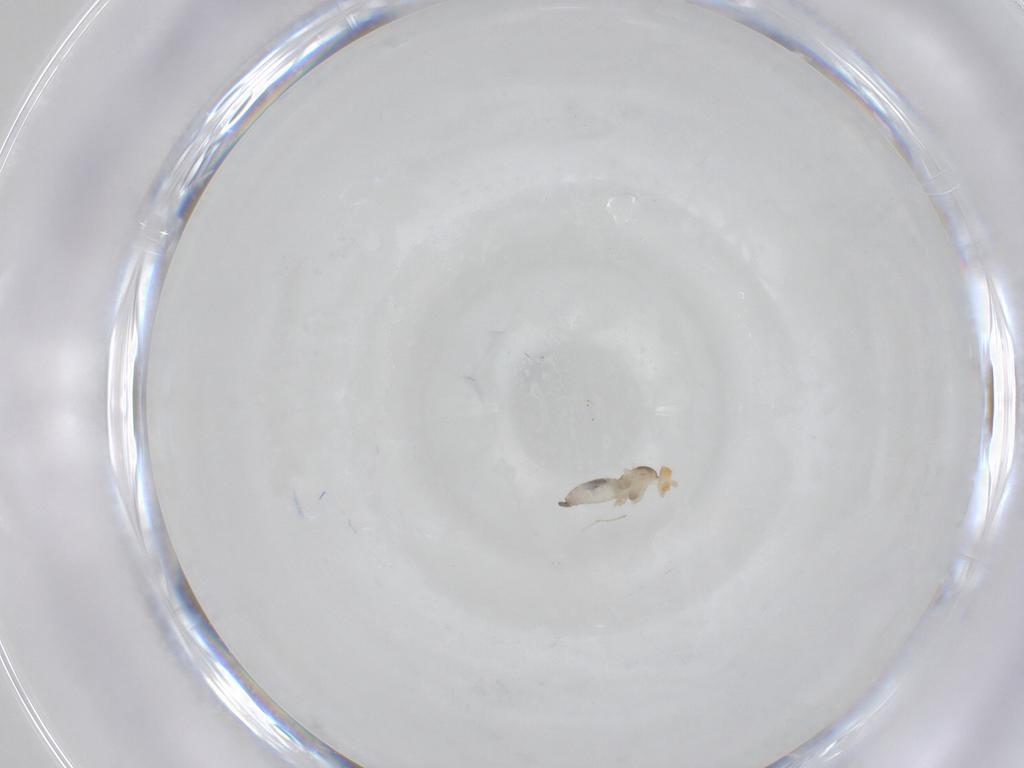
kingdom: Animalia
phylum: Arthropoda
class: Insecta
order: Diptera
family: Cecidomyiidae
